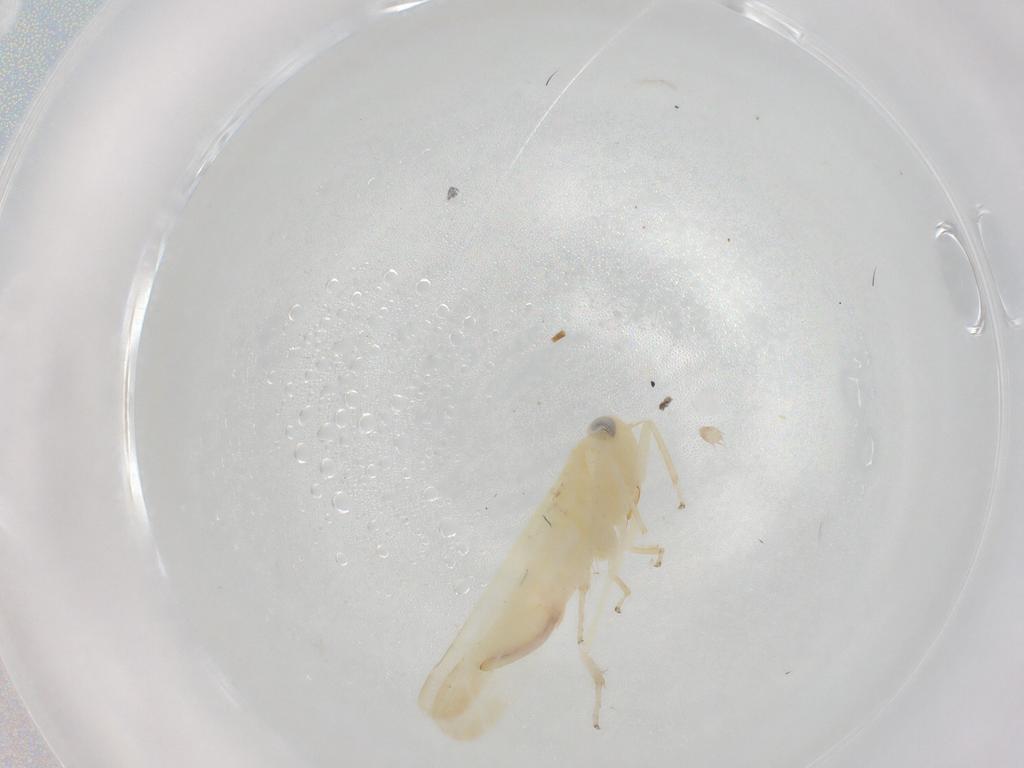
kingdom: Animalia
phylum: Arthropoda
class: Insecta
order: Hemiptera
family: Cicadellidae
